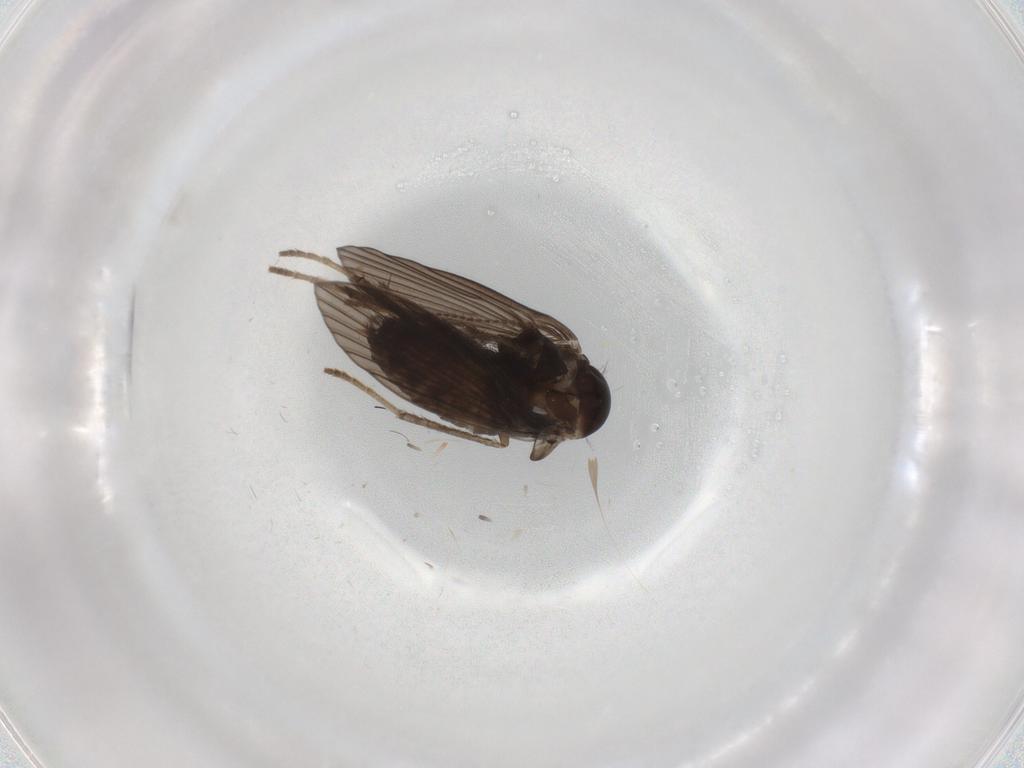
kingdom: Animalia
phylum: Arthropoda
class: Insecta
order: Diptera
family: Psychodidae
